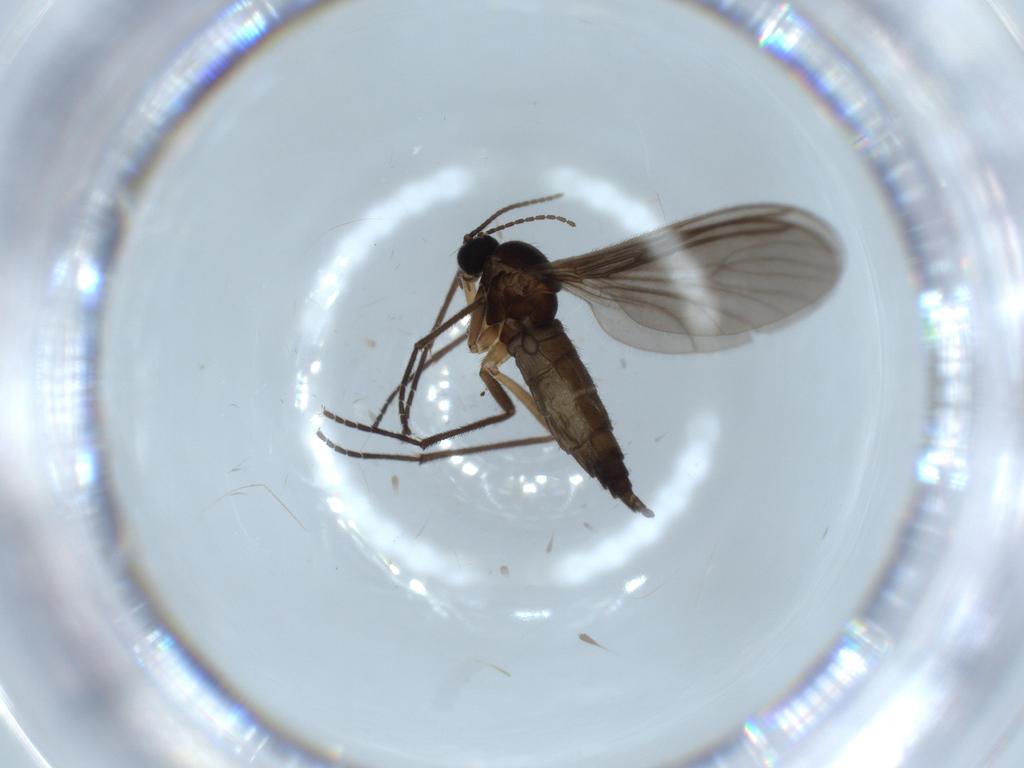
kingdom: Animalia
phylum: Arthropoda
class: Insecta
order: Diptera
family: Sciaridae
